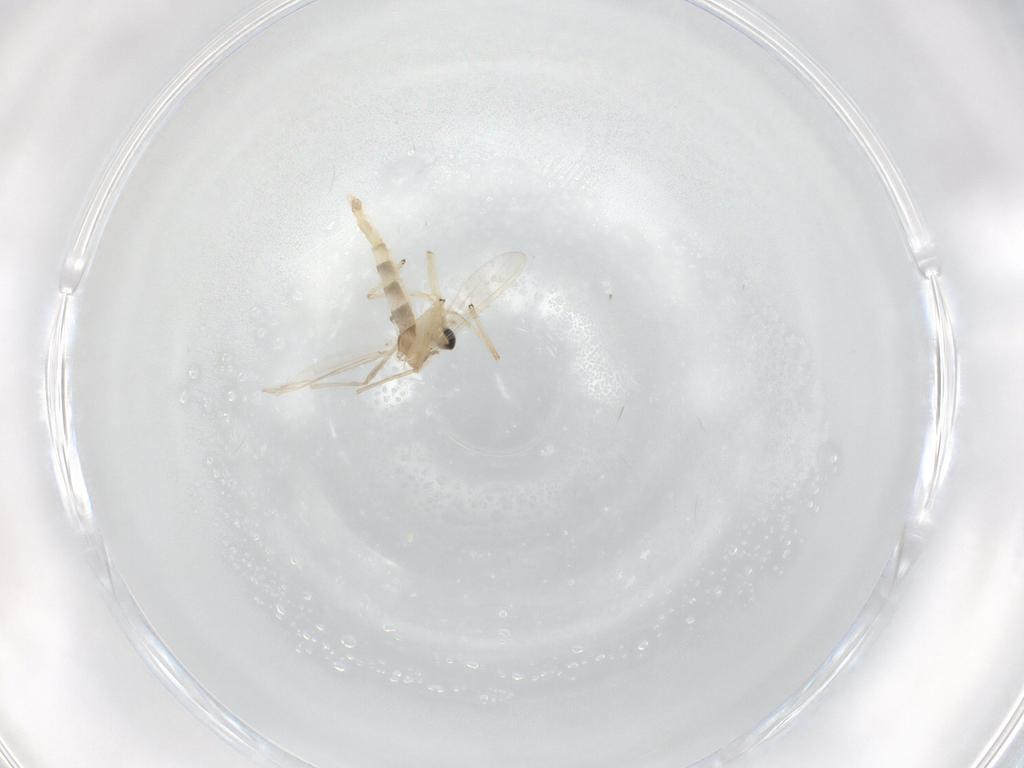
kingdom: Animalia
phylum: Arthropoda
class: Insecta
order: Diptera
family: Chironomidae
